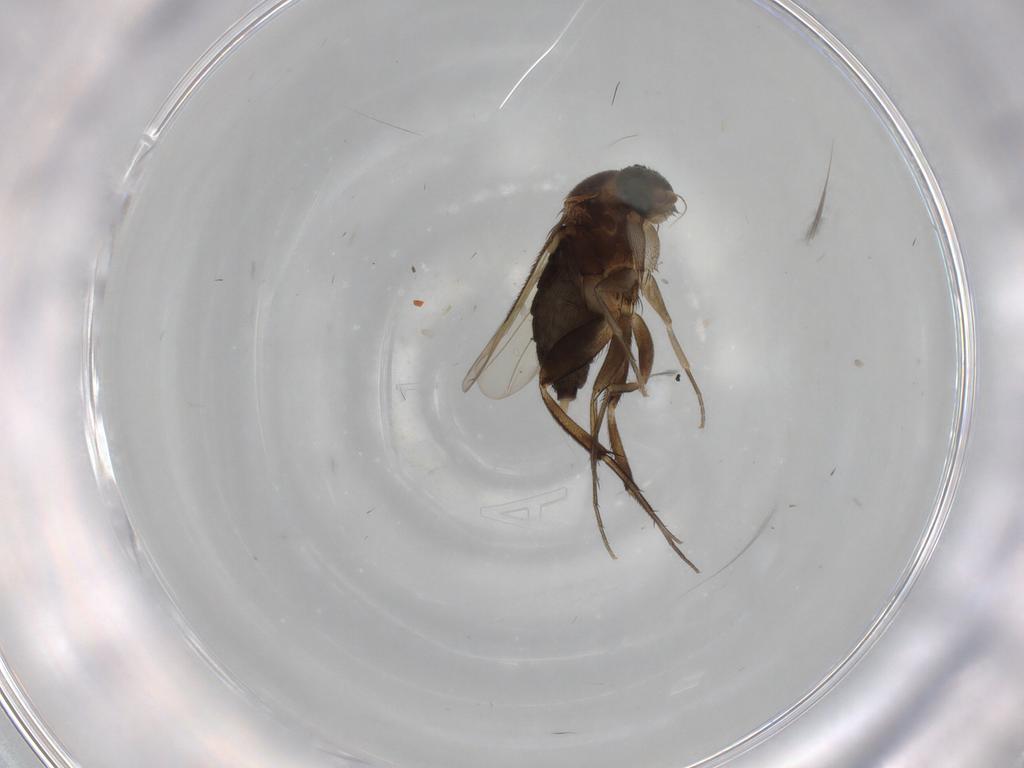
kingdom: Animalia
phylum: Arthropoda
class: Insecta
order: Diptera
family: Phoridae
